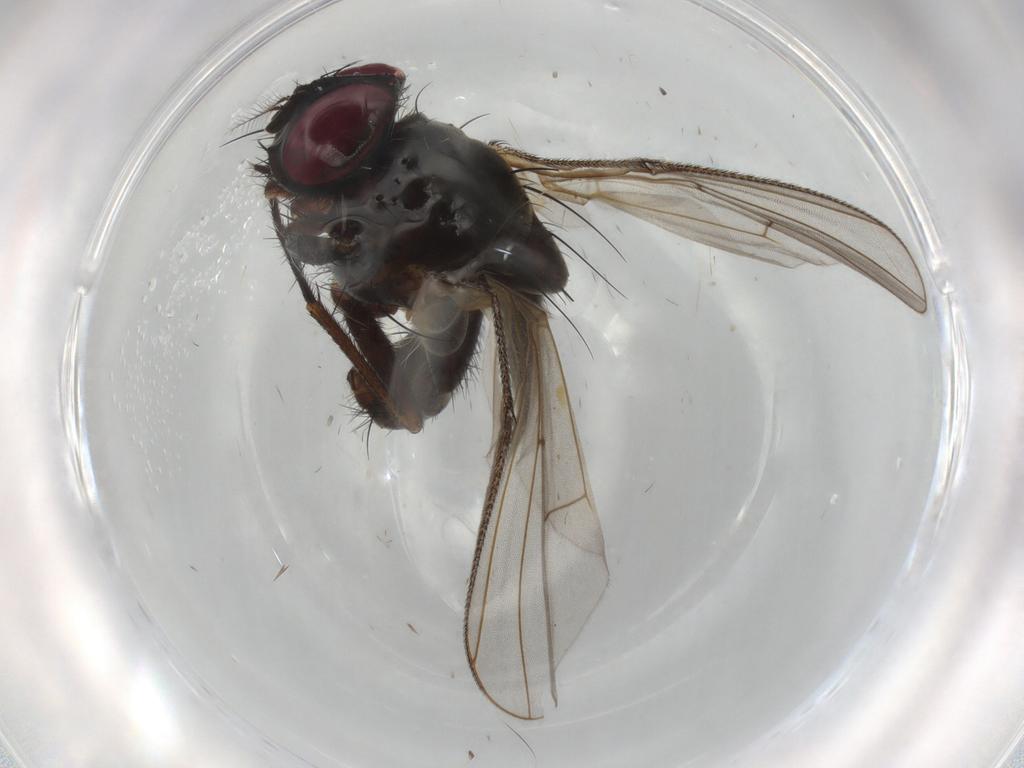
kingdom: Animalia
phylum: Arthropoda
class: Insecta
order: Diptera
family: Muscidae
